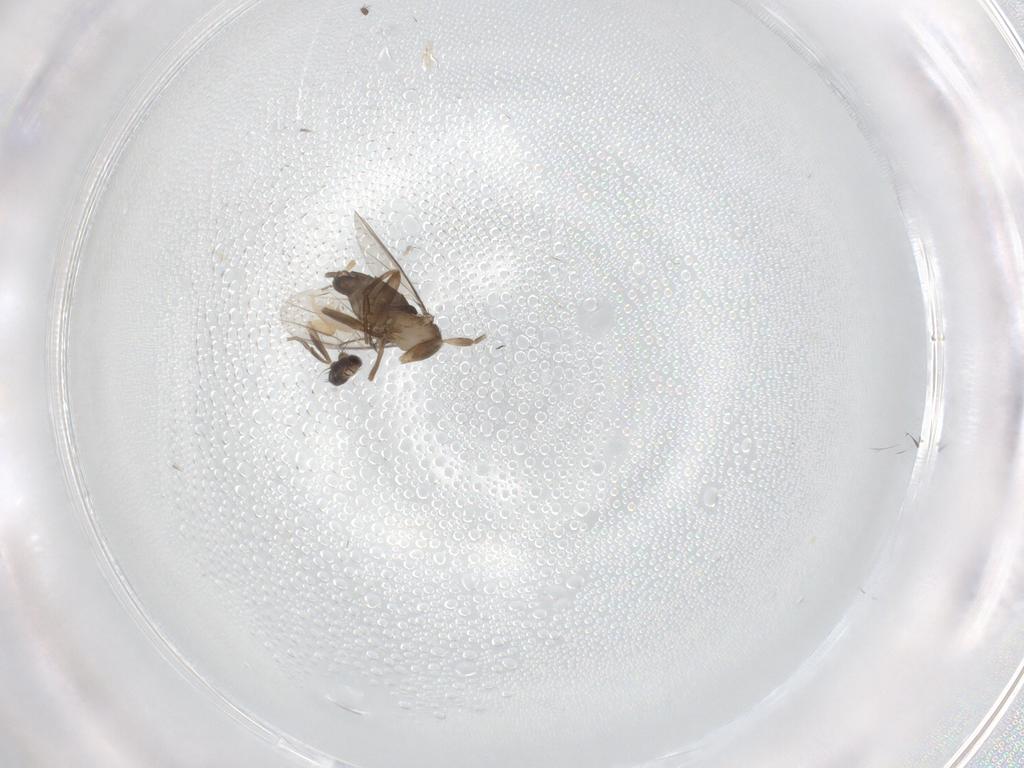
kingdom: Animalia
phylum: Arthropoda
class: Insecta
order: Diptera
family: Phoridae
